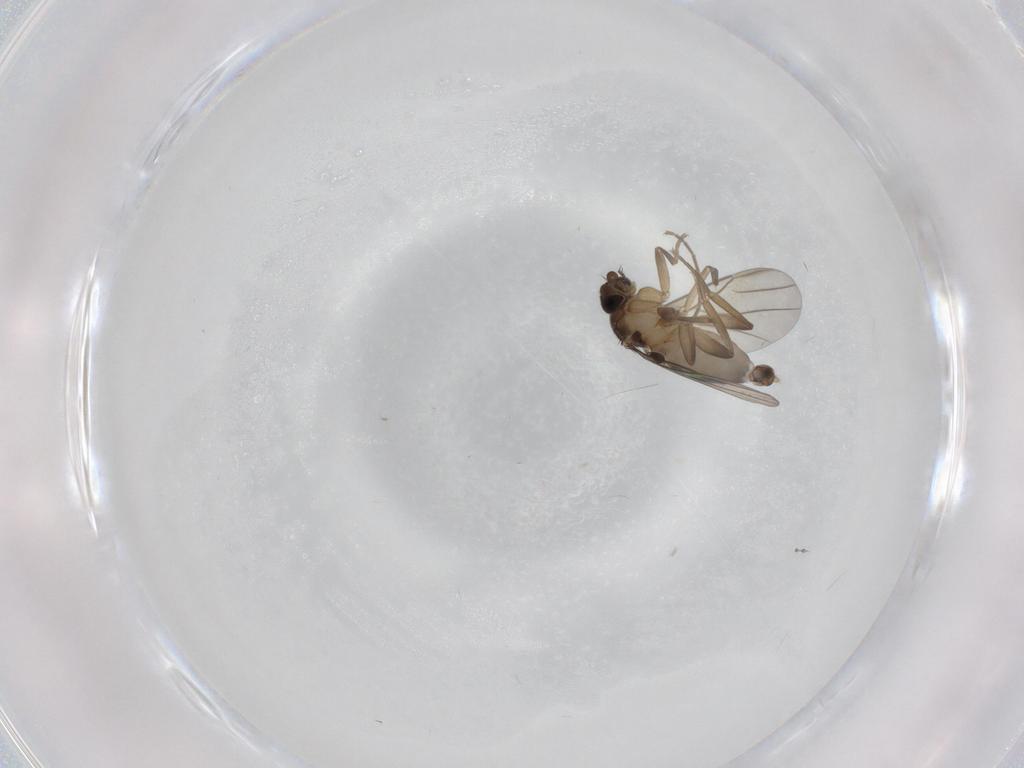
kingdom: Animalia
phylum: Arthropoda
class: Insecta
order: Diptera
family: Phoridae
